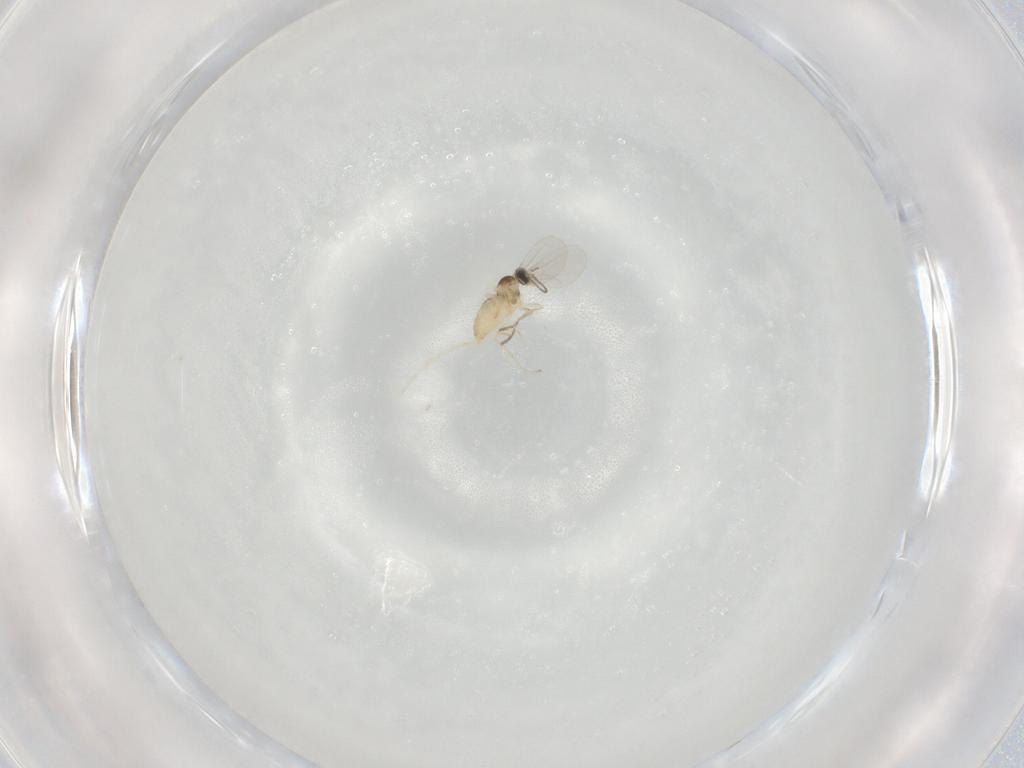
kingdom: Animalia
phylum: Arthropoda
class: Insecta
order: Diptera
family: Cecidomyiidae
